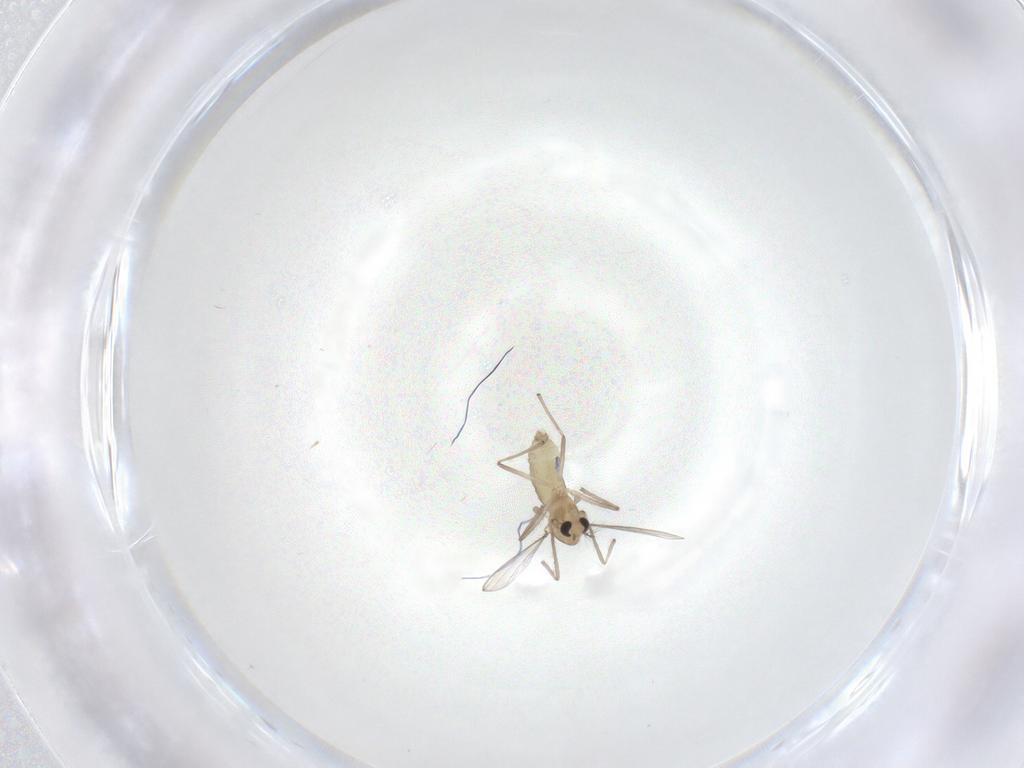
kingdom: Animalia
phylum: Arthropoda
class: Insecta
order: Diptera
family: Chironomidae
